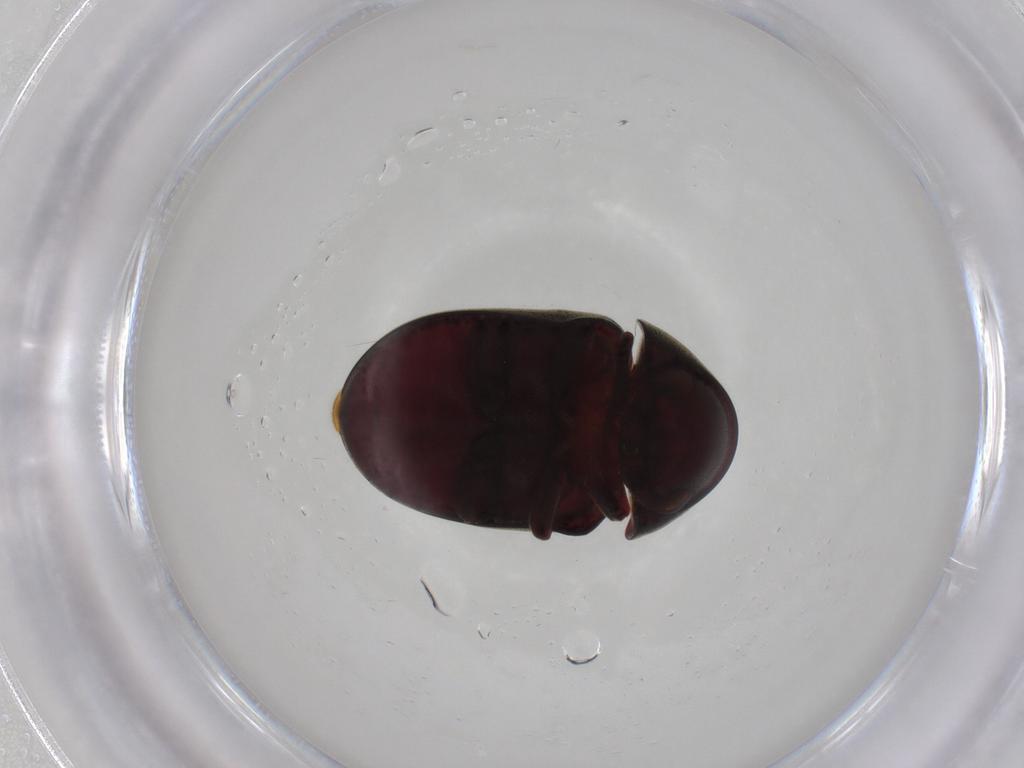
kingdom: Animalia
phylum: Arthropoda
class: Insecta
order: Coleoptera
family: Ptinidae
